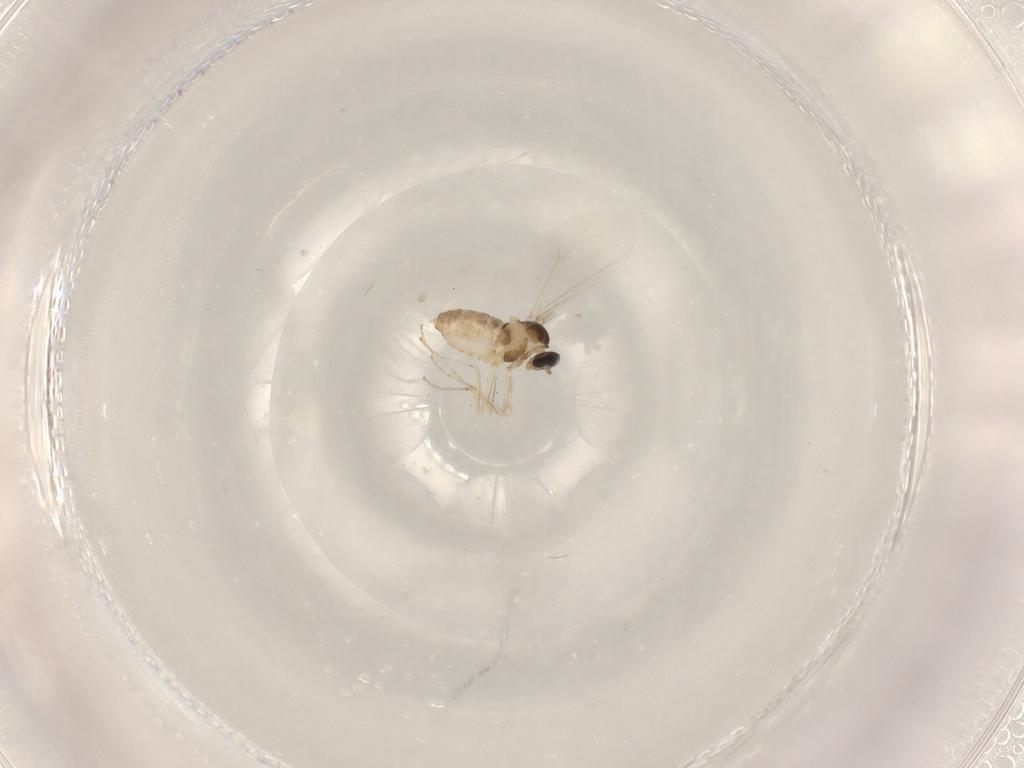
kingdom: Animalia
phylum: Arthropoda
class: Insecta
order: Diptera
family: Cecidomyiidae
